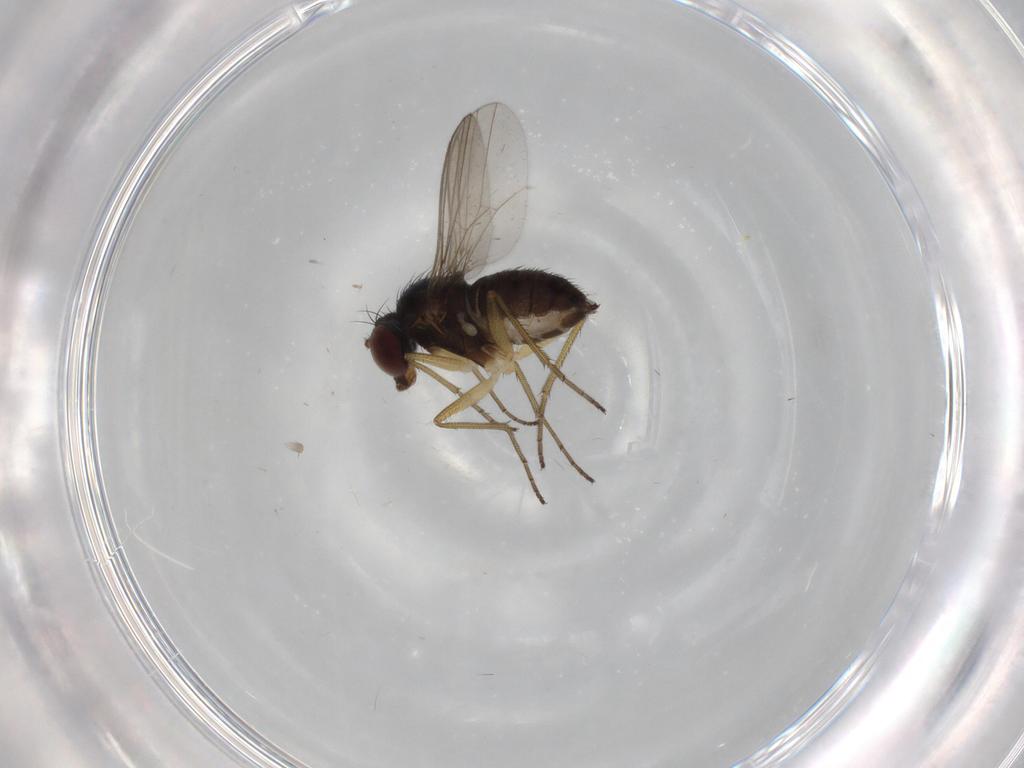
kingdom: Animalia
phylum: Arthropoda
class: Insecta
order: Diptera
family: Dolichopodidae
